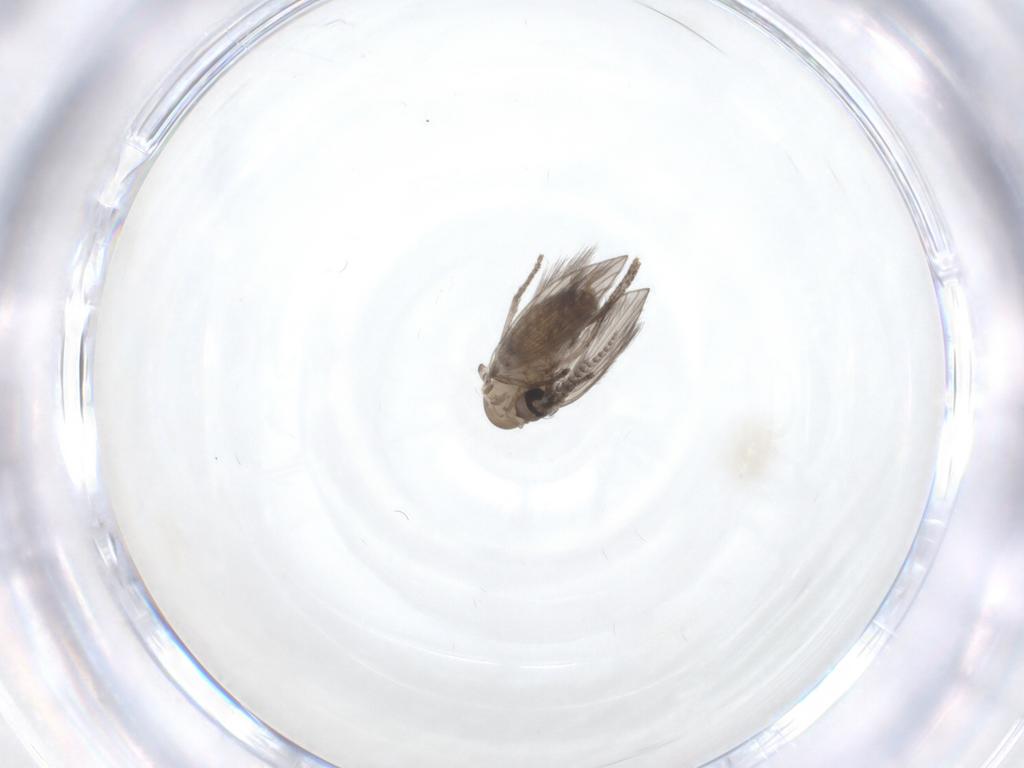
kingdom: Animalia
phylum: Arthropoda
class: Insecta
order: Diptera
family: Psychodidae
